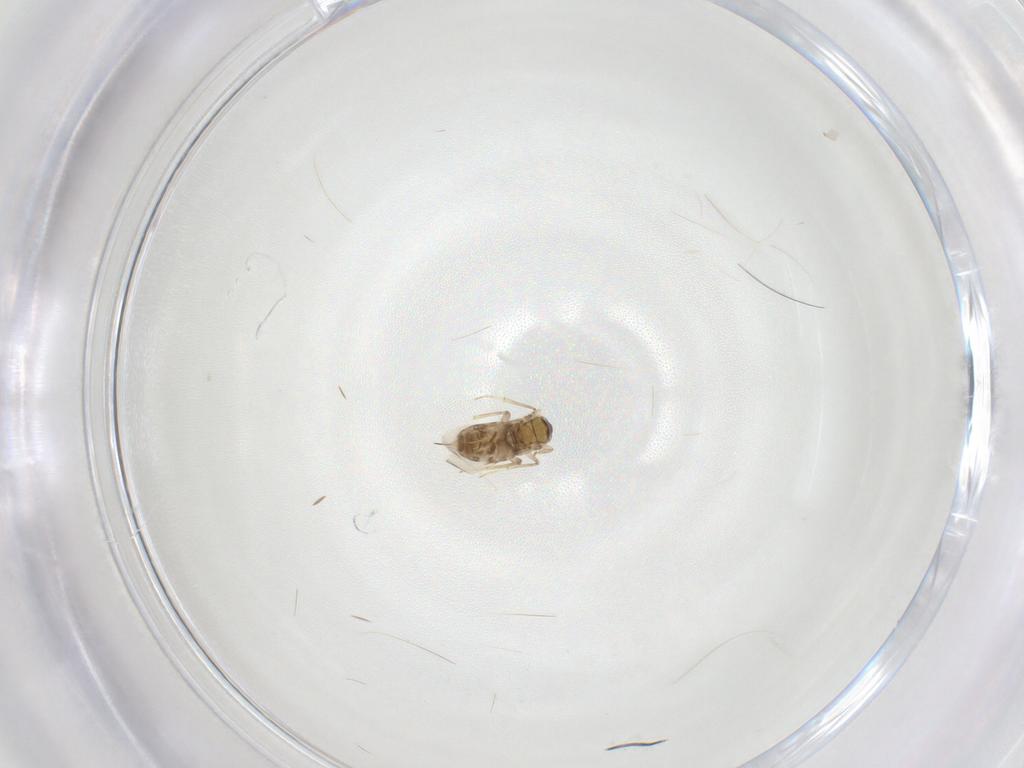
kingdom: Animalia
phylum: Arthropoda
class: Insecta
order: Hymenoptera
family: Encyrtidae
